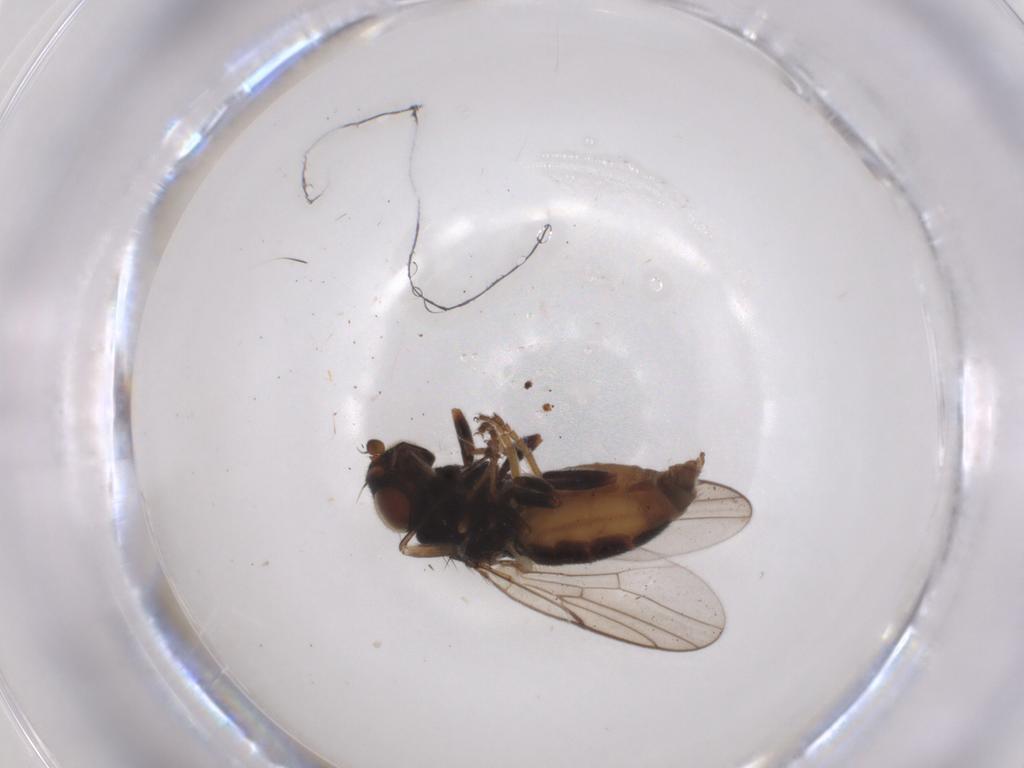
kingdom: Animalia
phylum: Arthropoda
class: Insecta
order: Diptera
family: Chloropidae
